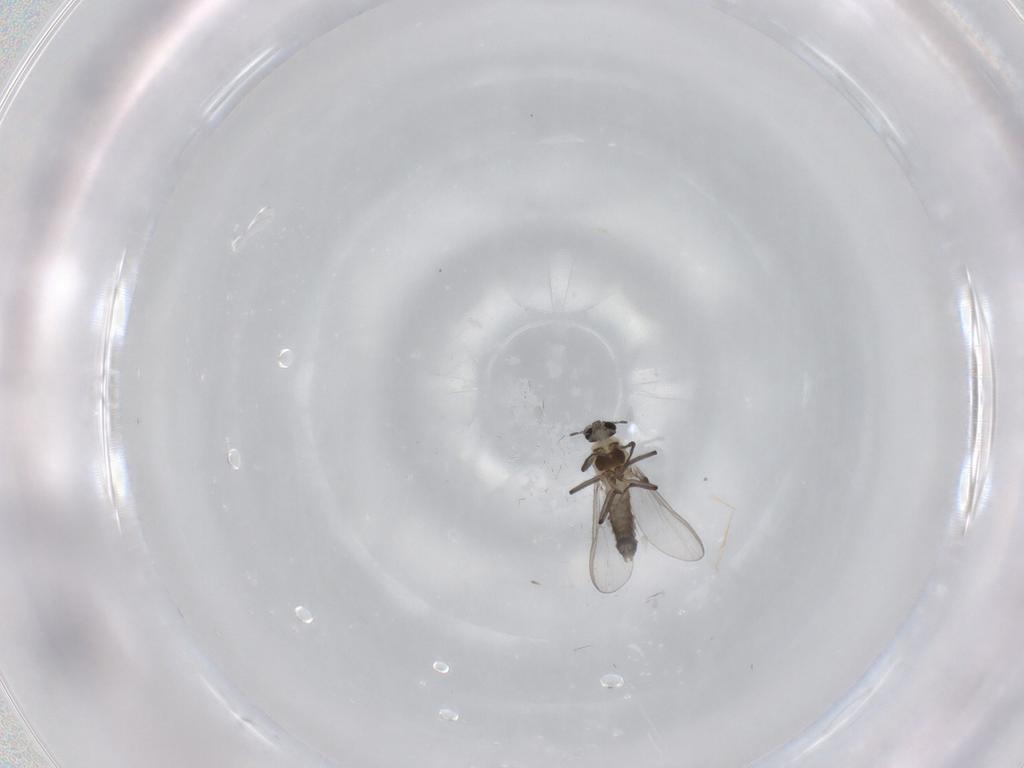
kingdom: Animalia
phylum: Arthropoda
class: Insecta
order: Diptera
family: Chironomidae
